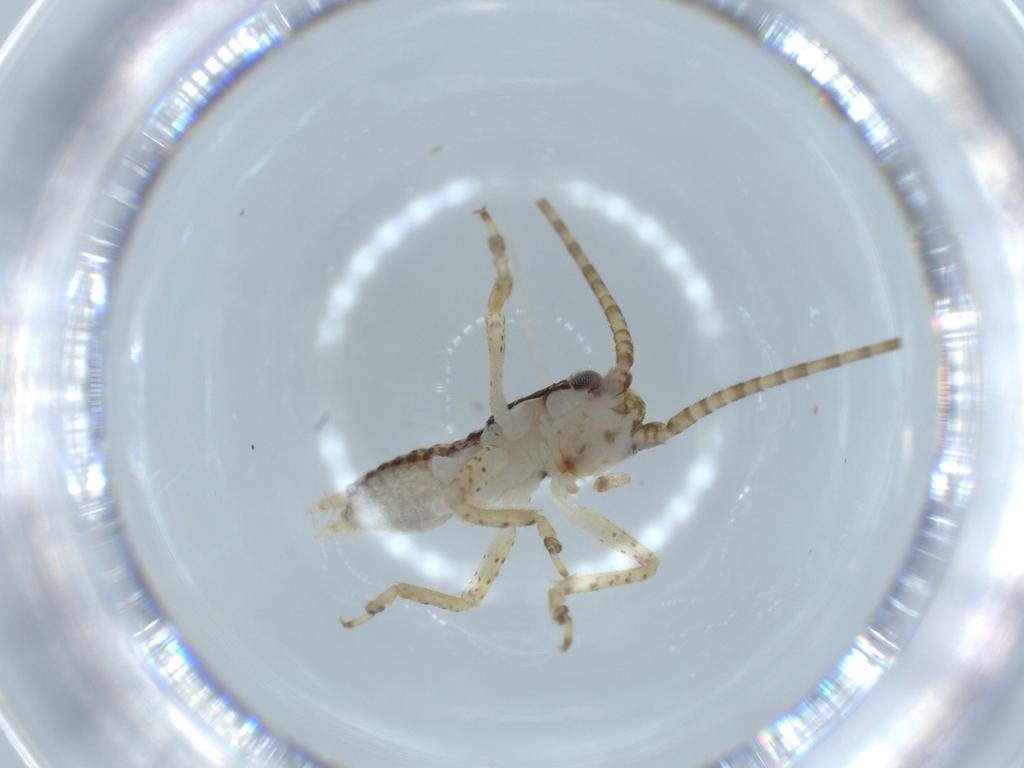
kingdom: Animalia
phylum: Arthropoda
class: Insecta
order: Orthoptera
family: Gryllidae
